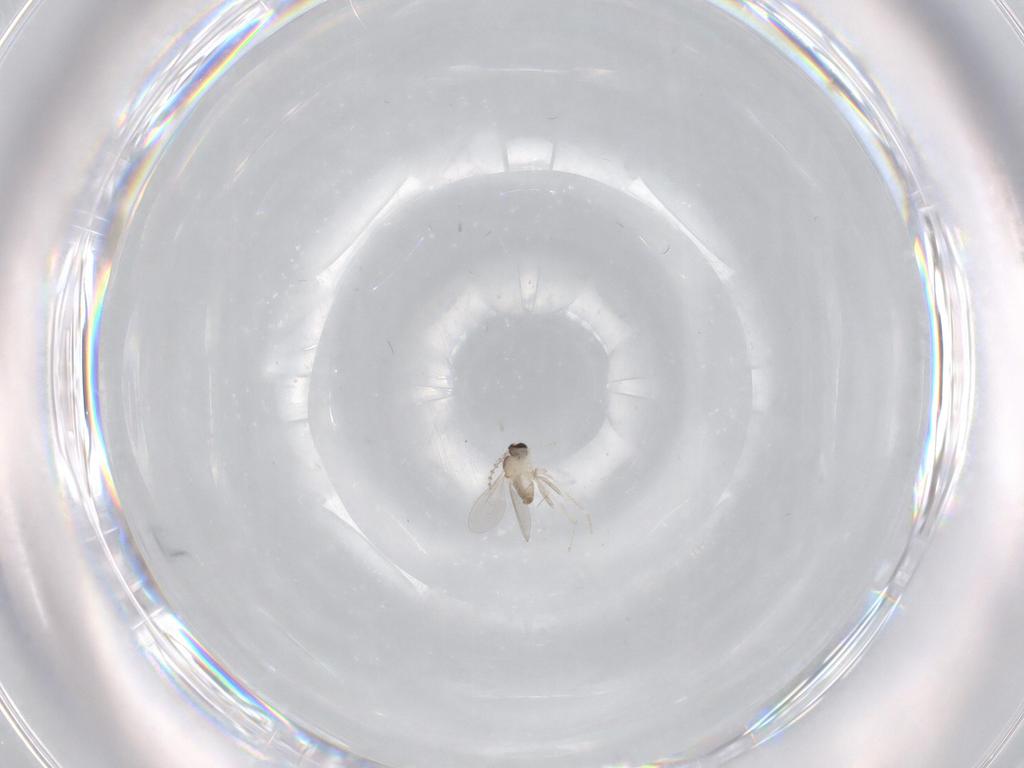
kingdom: Animalia
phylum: Arthropoda
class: Insecta
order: Diptera
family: Cecidomyiidae
